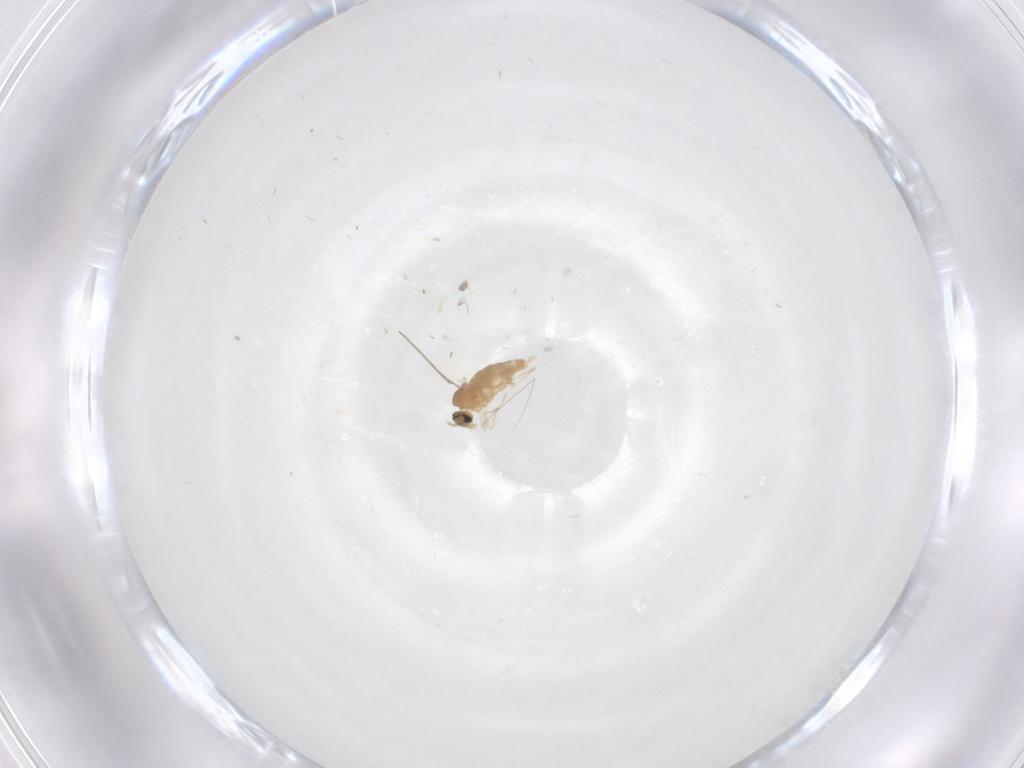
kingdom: Animalia
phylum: Arthropoda
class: Insecta
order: Diptera
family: Cecidomyiidae
